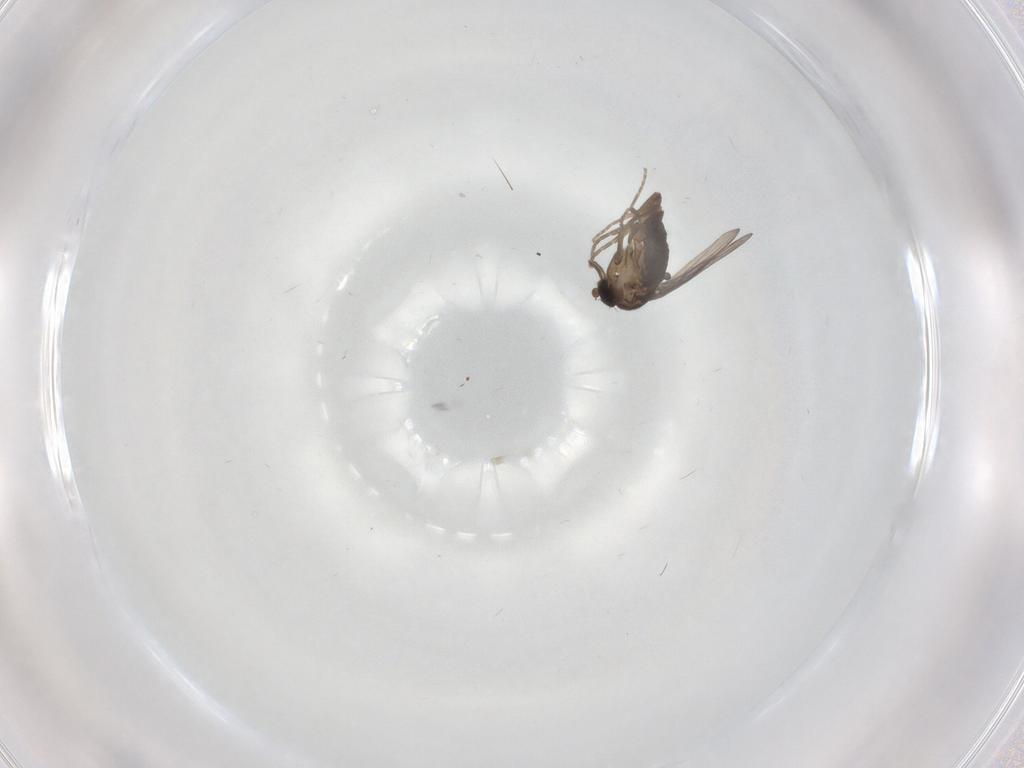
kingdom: Animalia
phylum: Arthropoda
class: Insecta
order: Diptera
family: Cecidomyiidae
